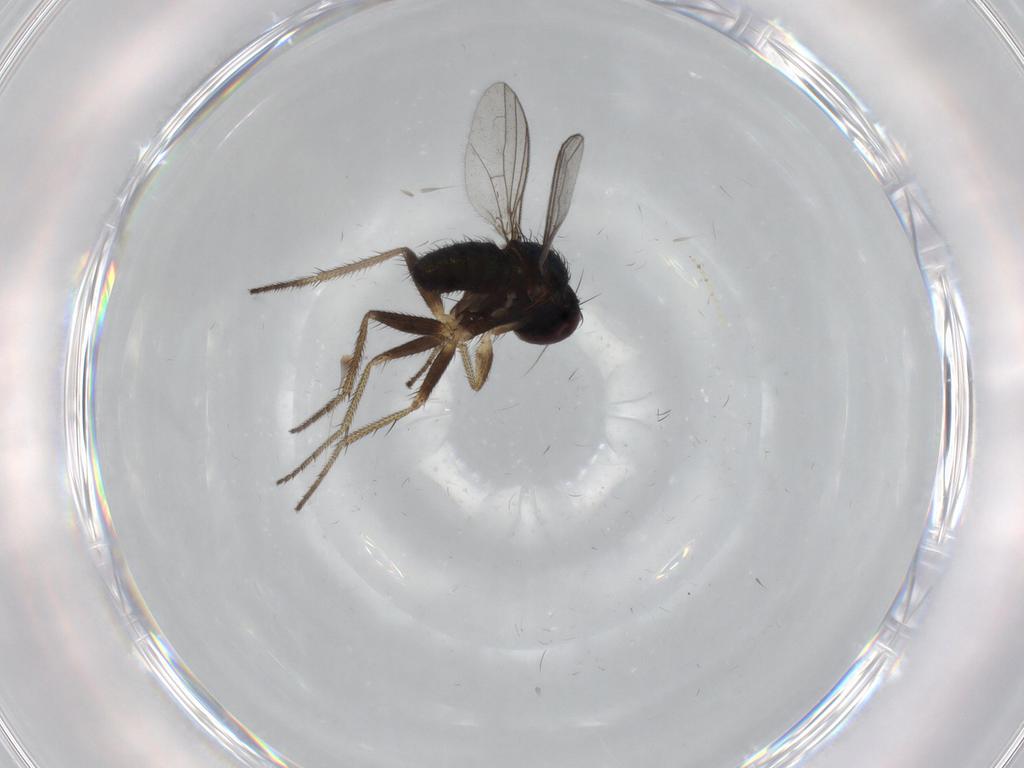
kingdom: Animalia
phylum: Arthropoda
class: Insecta
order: Diptera
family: Cecidomyiidae
